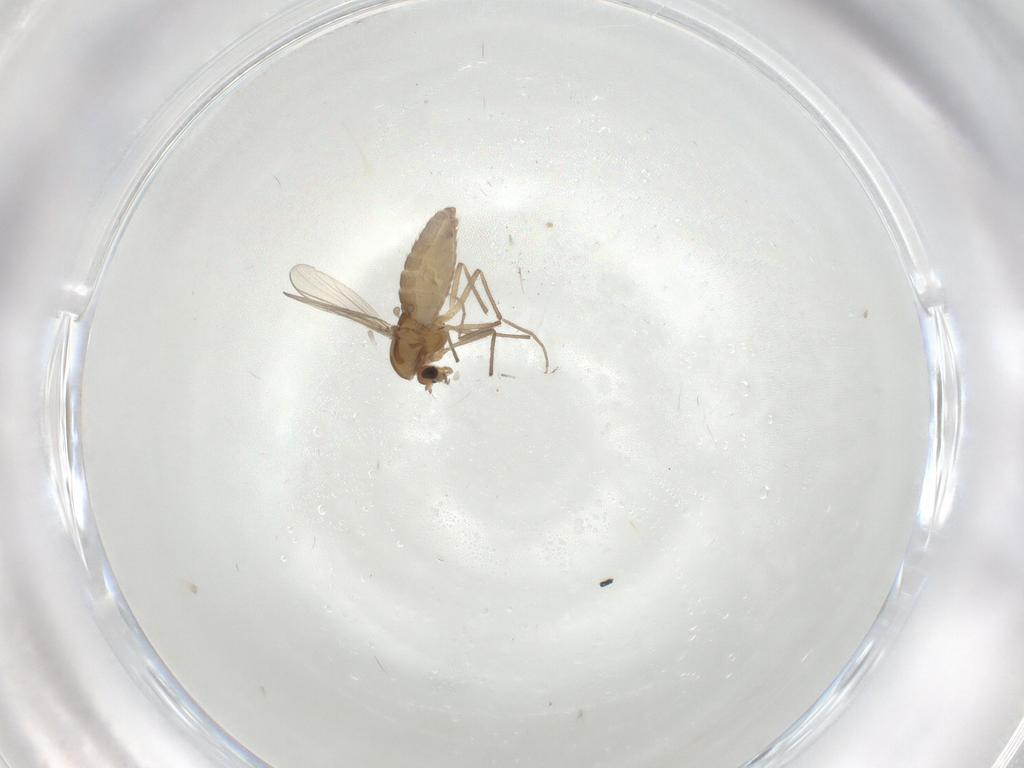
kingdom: Animalia
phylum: Arthropoda
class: Insecta
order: Diptera
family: Chironomidae
